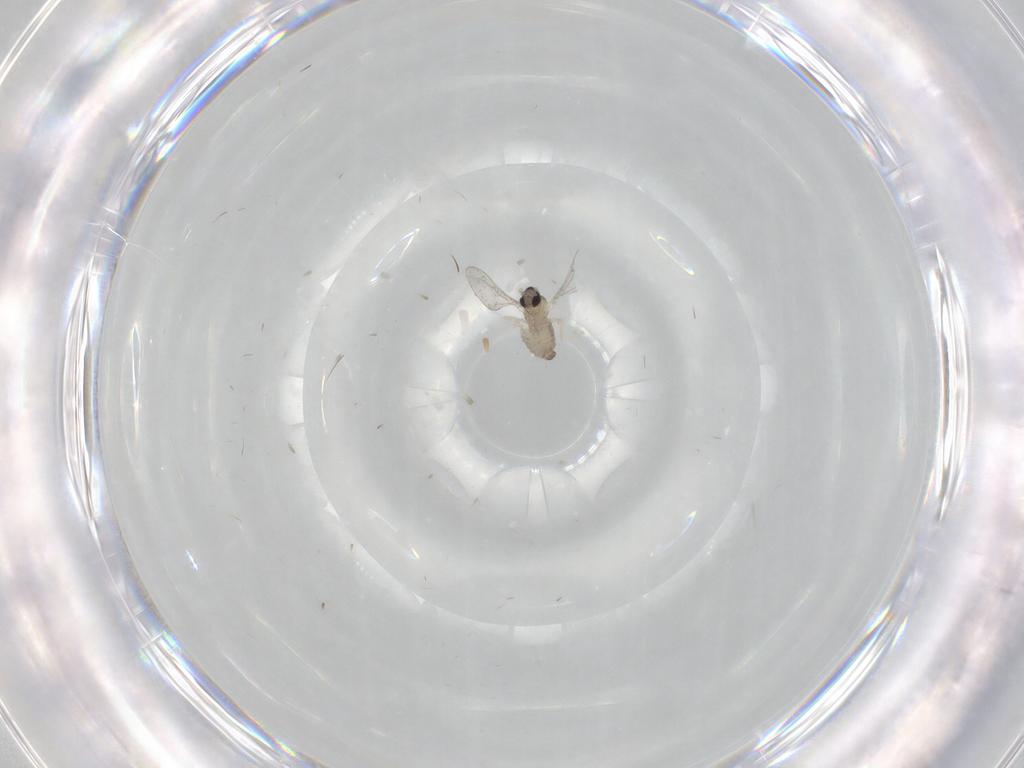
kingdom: Animalia
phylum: Arthropoda
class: Insecta
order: Diptera
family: Cecidomyiidae
